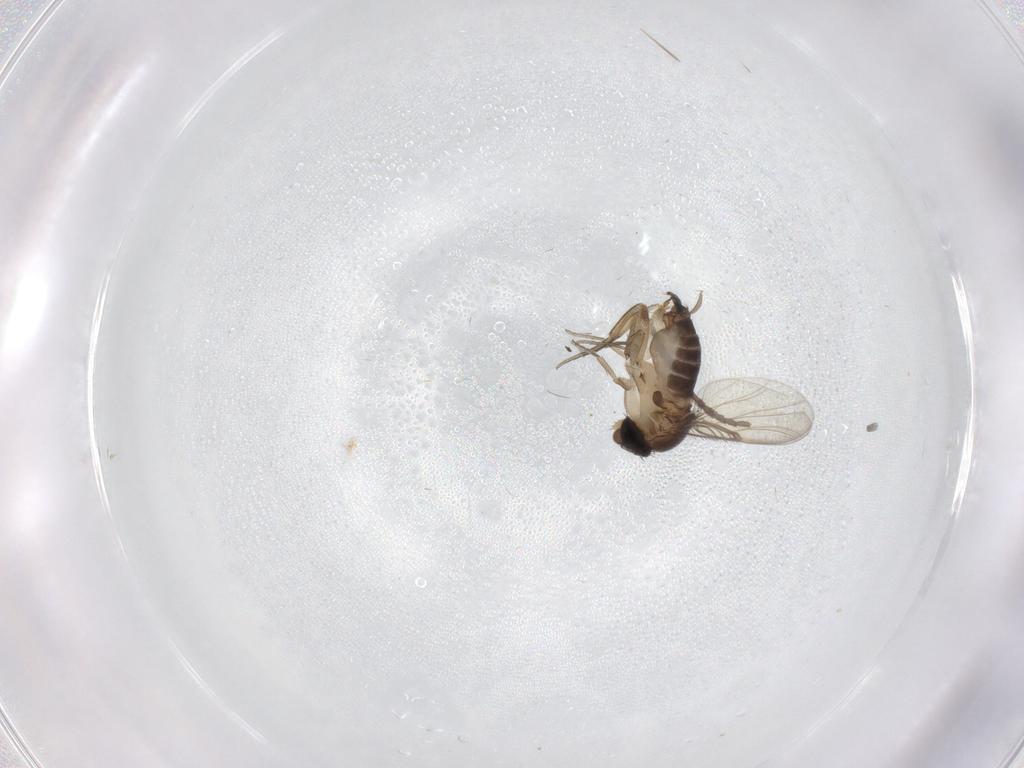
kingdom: Animalia
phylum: Arthropoda
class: Insecta
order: Diptera
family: Psychodidae
